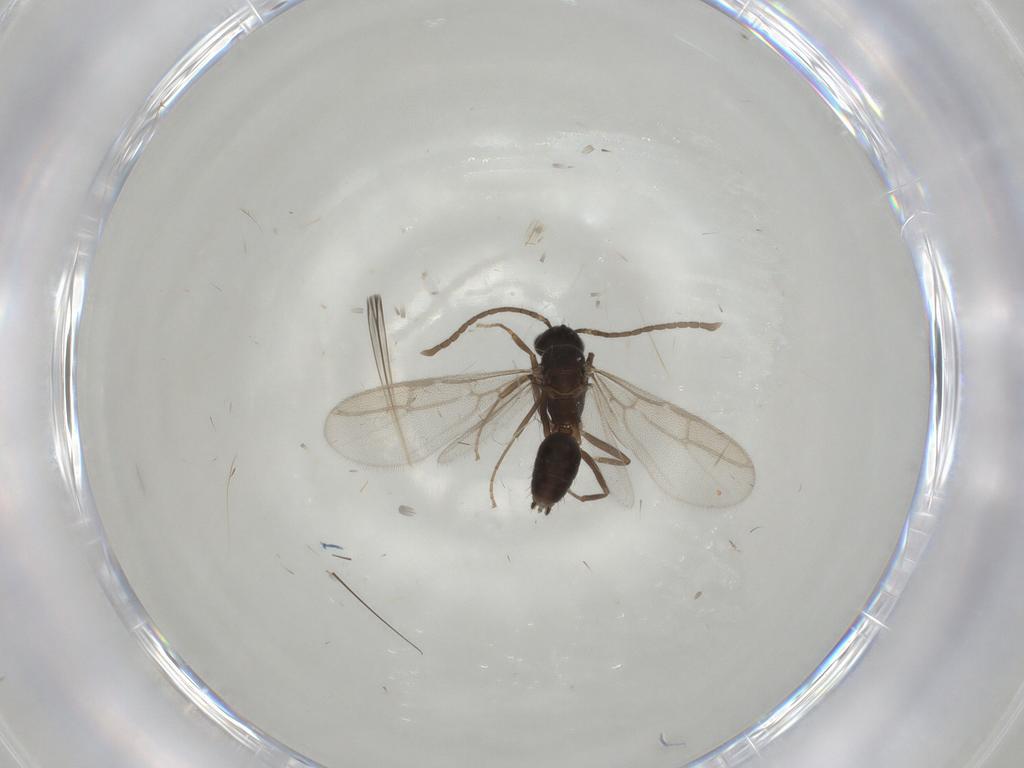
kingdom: Animalia
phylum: Arthropoda
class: Insecta
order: Hymenoptera
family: Formicidae
